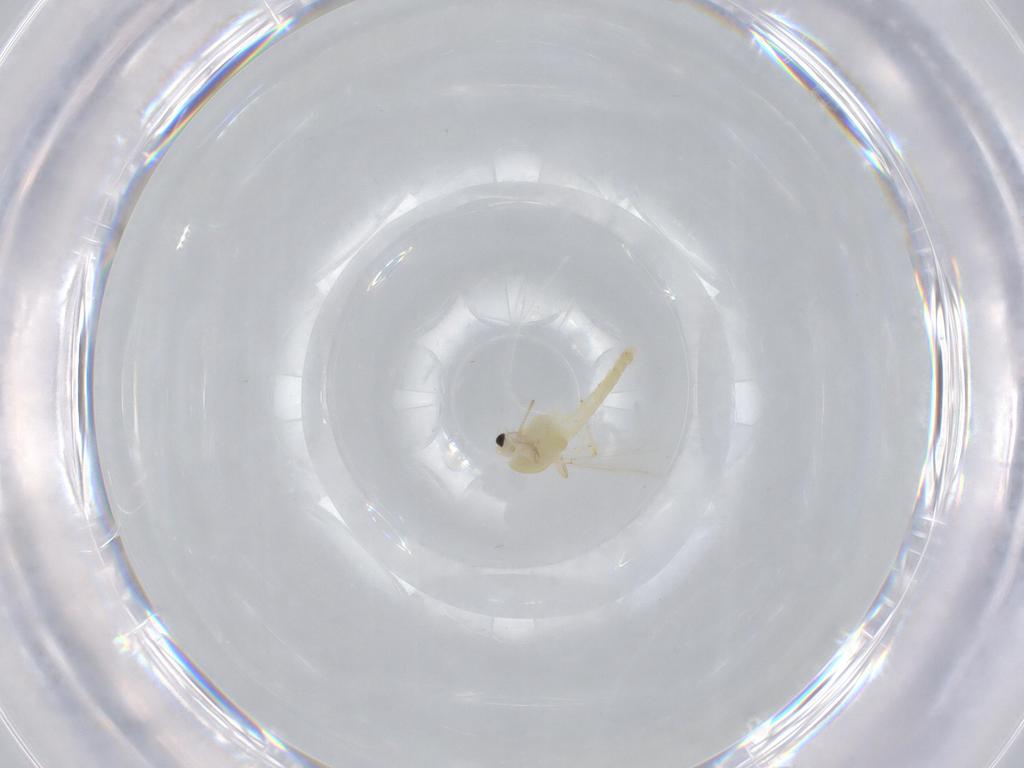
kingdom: Animalia
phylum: Arthropoda
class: Insecta
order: Diptera
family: Chironomidae
